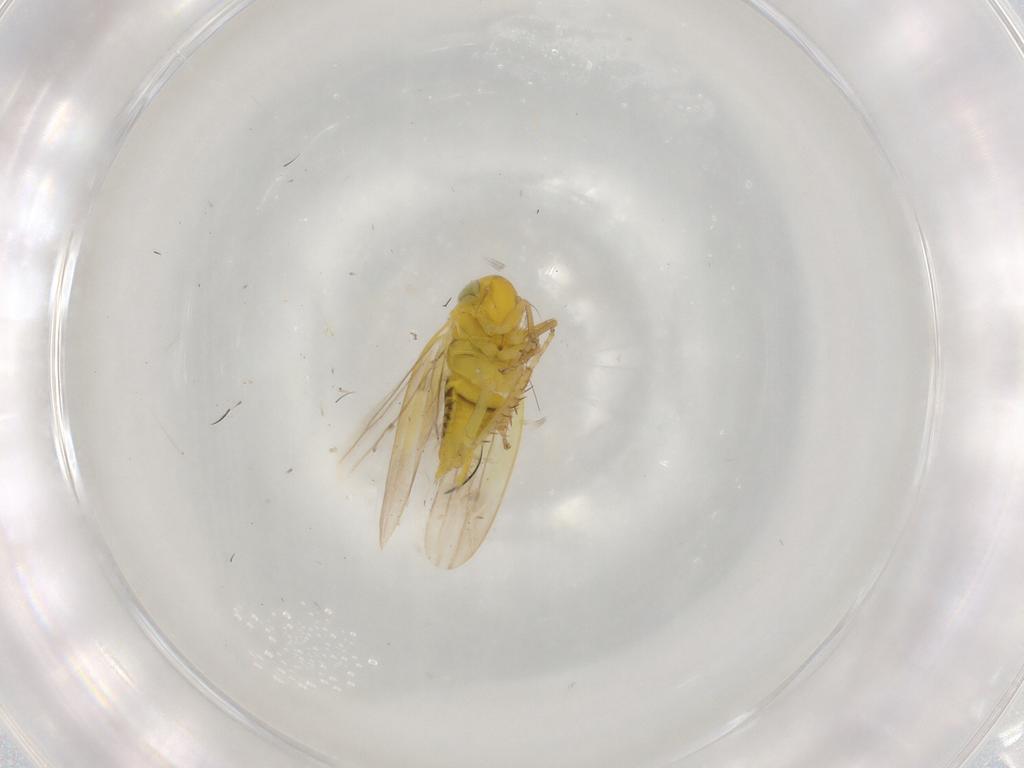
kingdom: Animalia
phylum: Arthropoda
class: Insecta
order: Hemiptera
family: Cicadellidae
